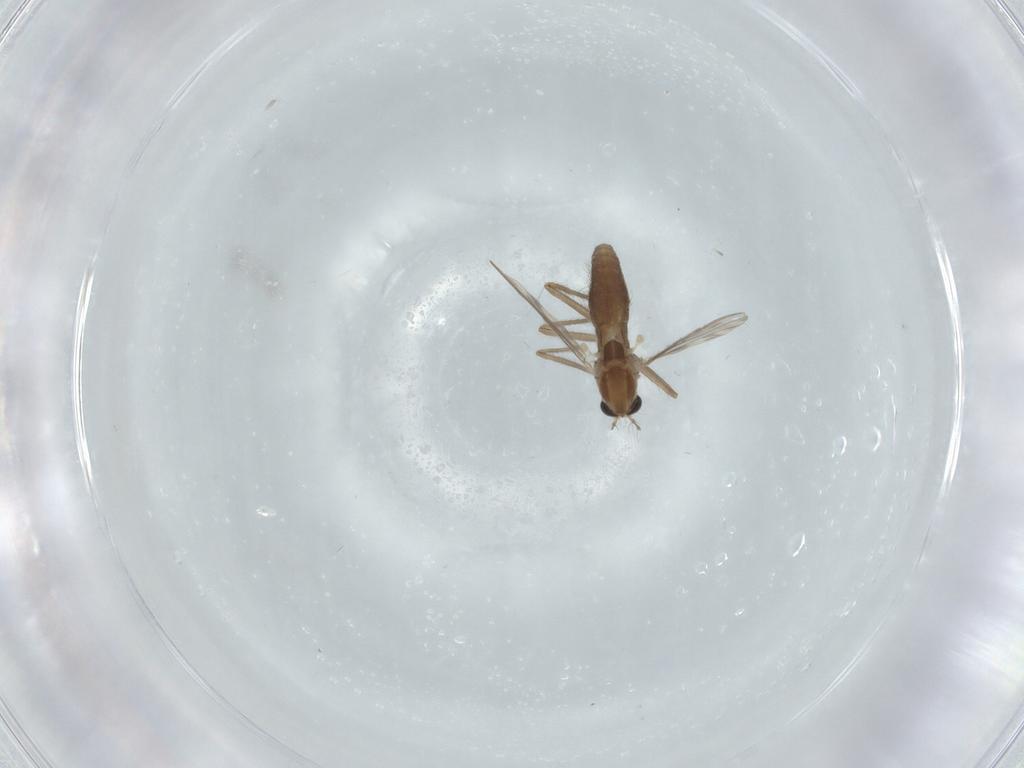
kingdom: Animalia
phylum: Arthropoda
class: Insecta
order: Diptera
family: Chironomidae
